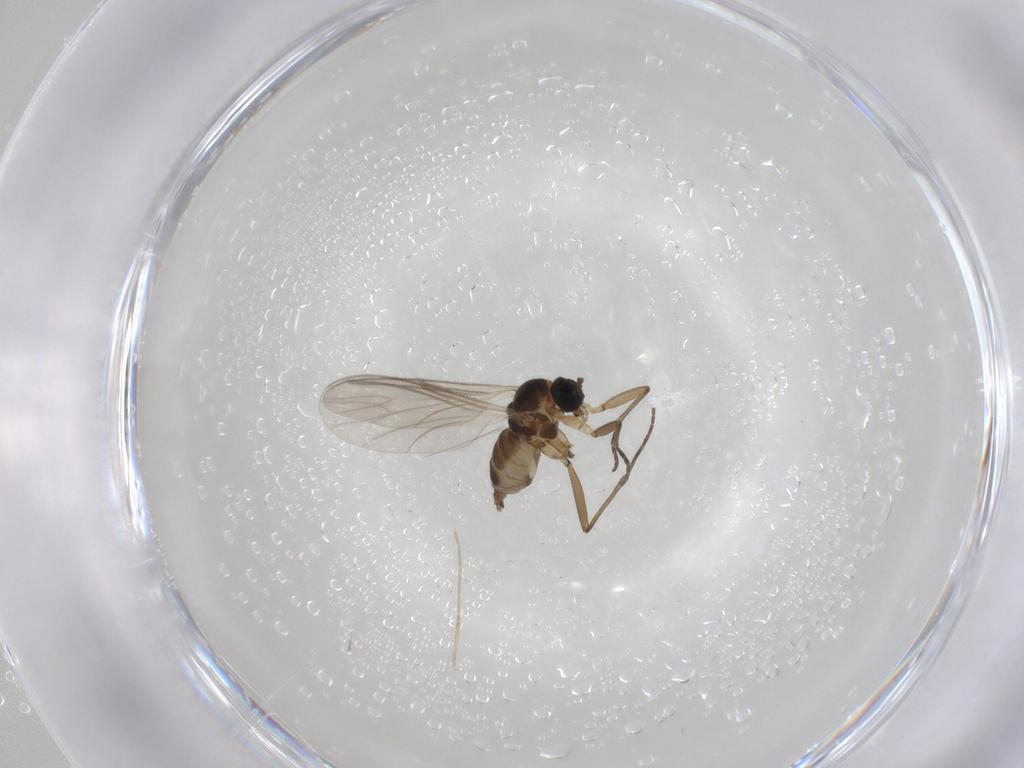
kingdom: Animalia
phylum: Arthropoda
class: Insecta
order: Diptera
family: Cecidomyiidae
